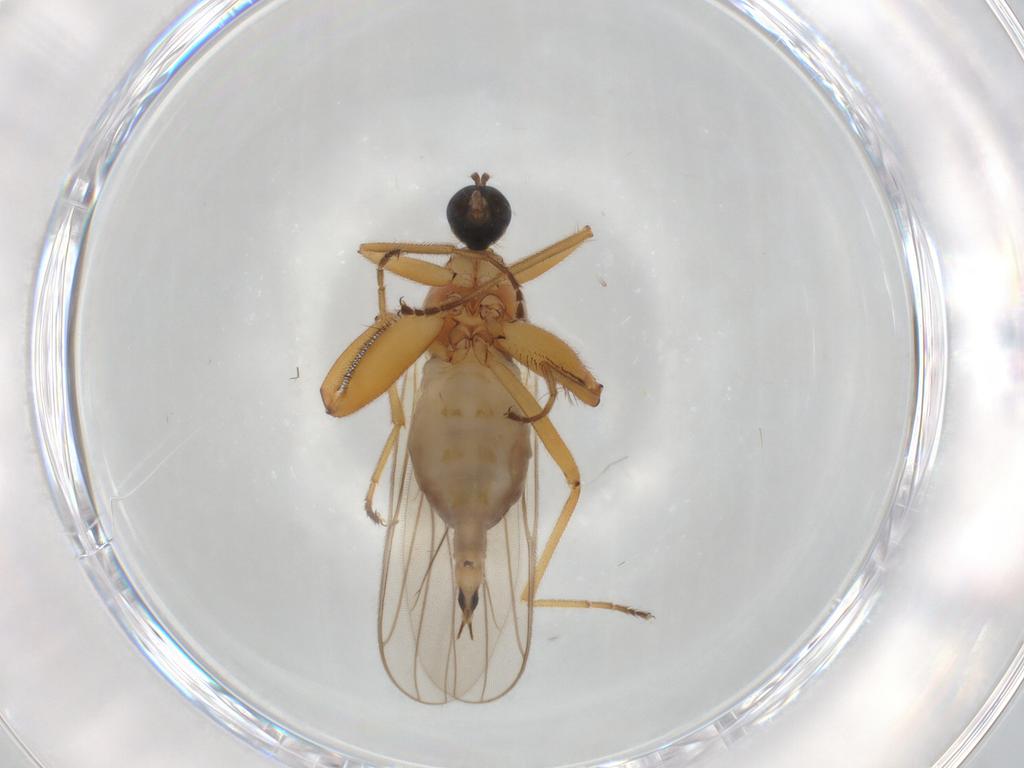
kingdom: Animalia
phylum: Arthropoda
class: Insecta
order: Diptera
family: Hybotidae
